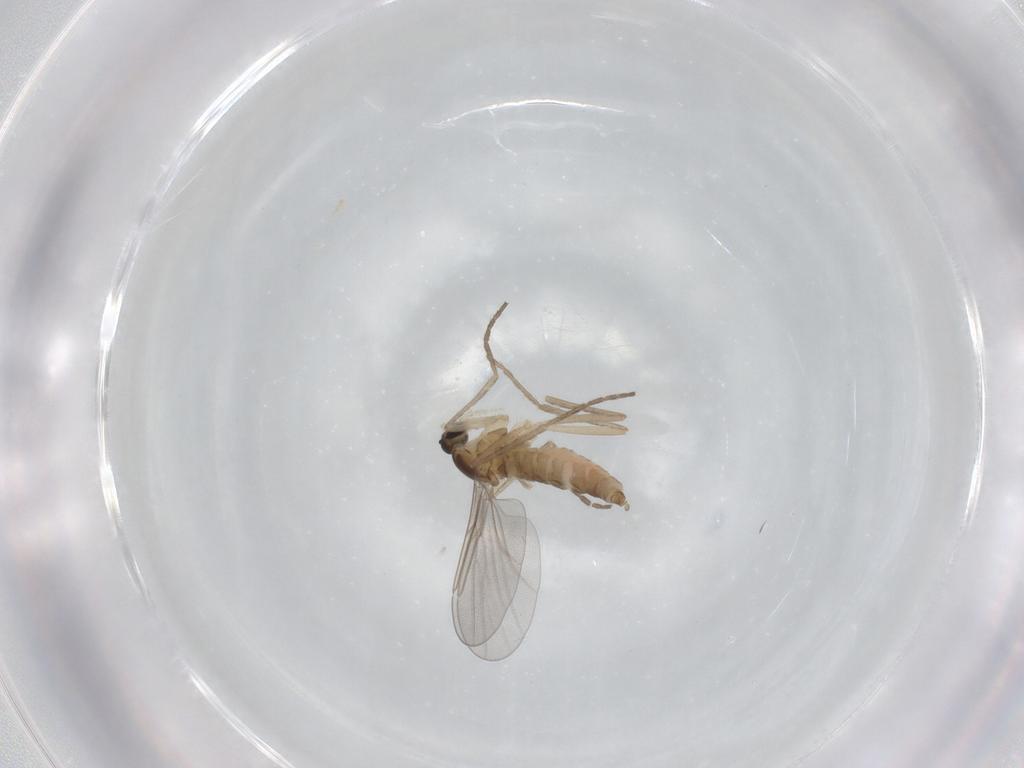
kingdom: Animalia
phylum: Arthropoda
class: Insecta
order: Diptera
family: Cecidomyiidae
